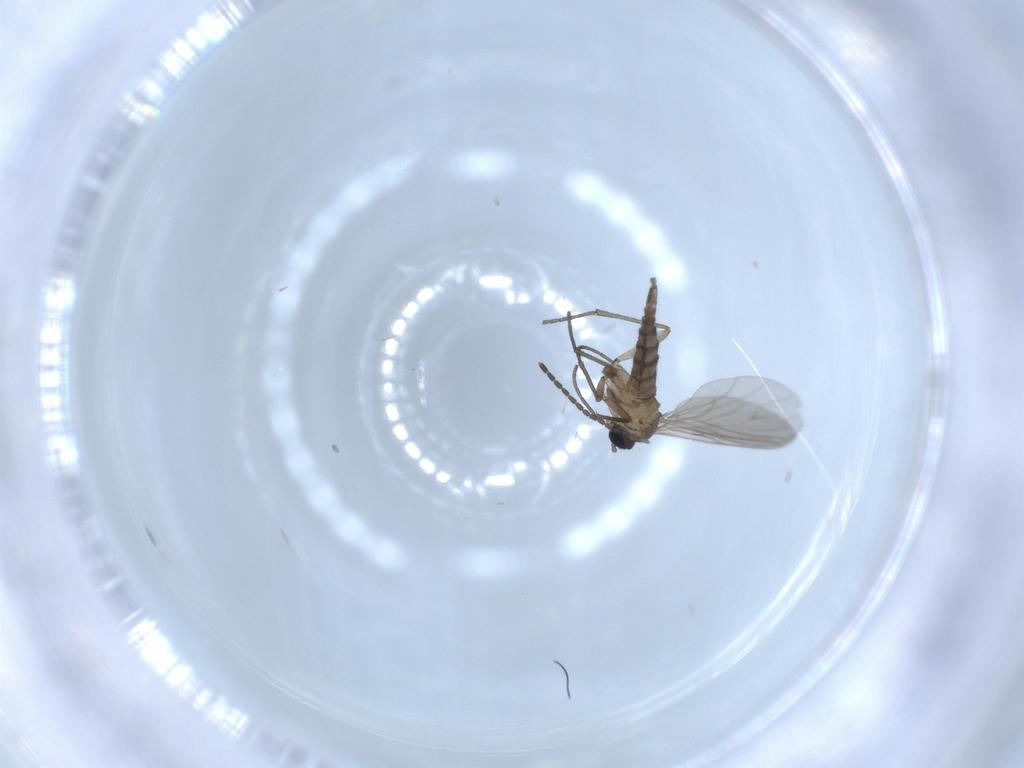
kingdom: Animalia
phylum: Arthropoda
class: Insecta
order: Diptera
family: Sciaridae
